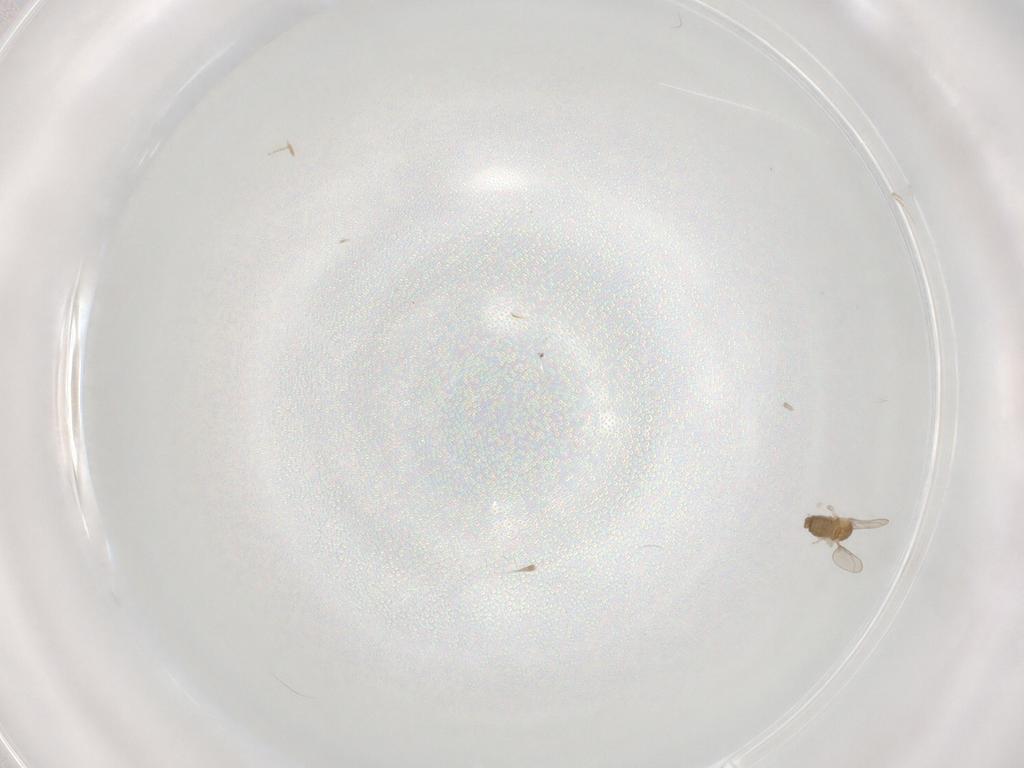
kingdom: Animalia
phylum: Arthropoda
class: Insecta
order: Diptera
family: Cecidomyiidae
